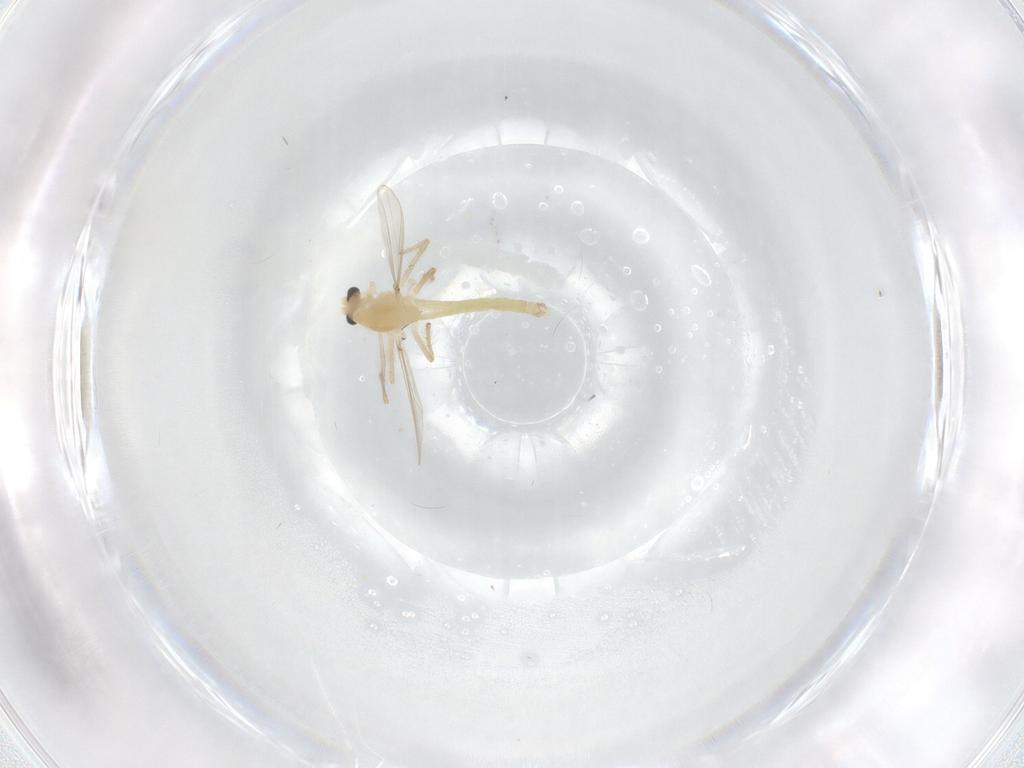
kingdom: Animalia
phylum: Arthropoda
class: Insecta
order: Diptera
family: Chironomidae
